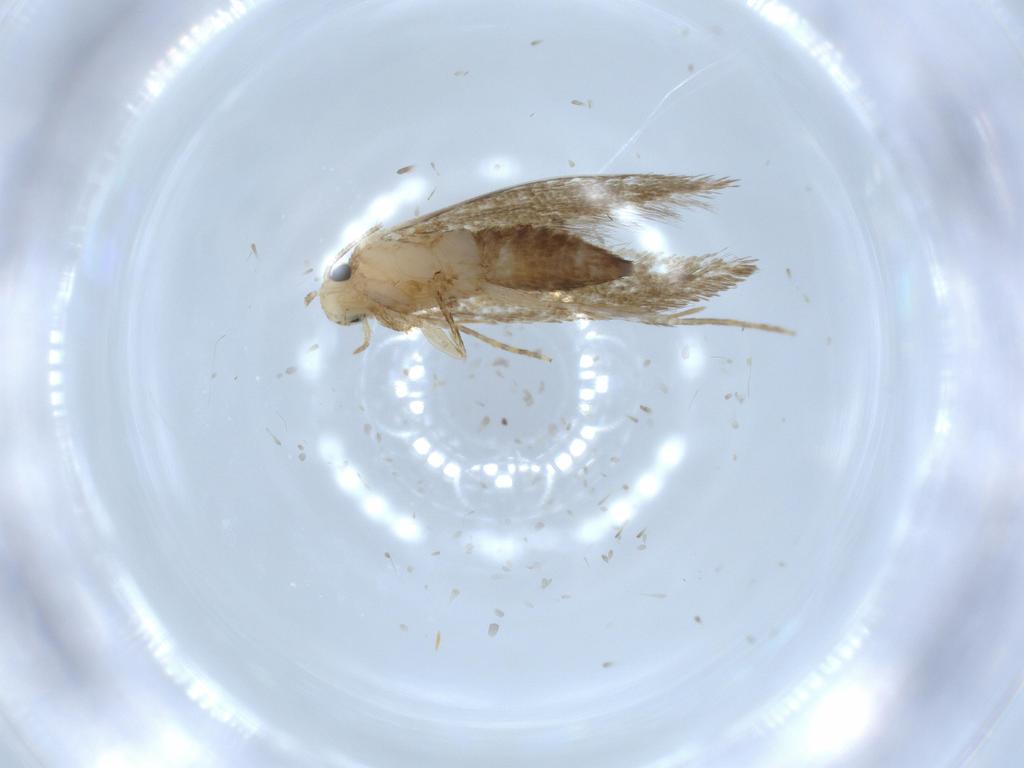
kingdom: Animalia
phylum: Arthropoda
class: Insecta
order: Lepidoptera
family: Tineidae
